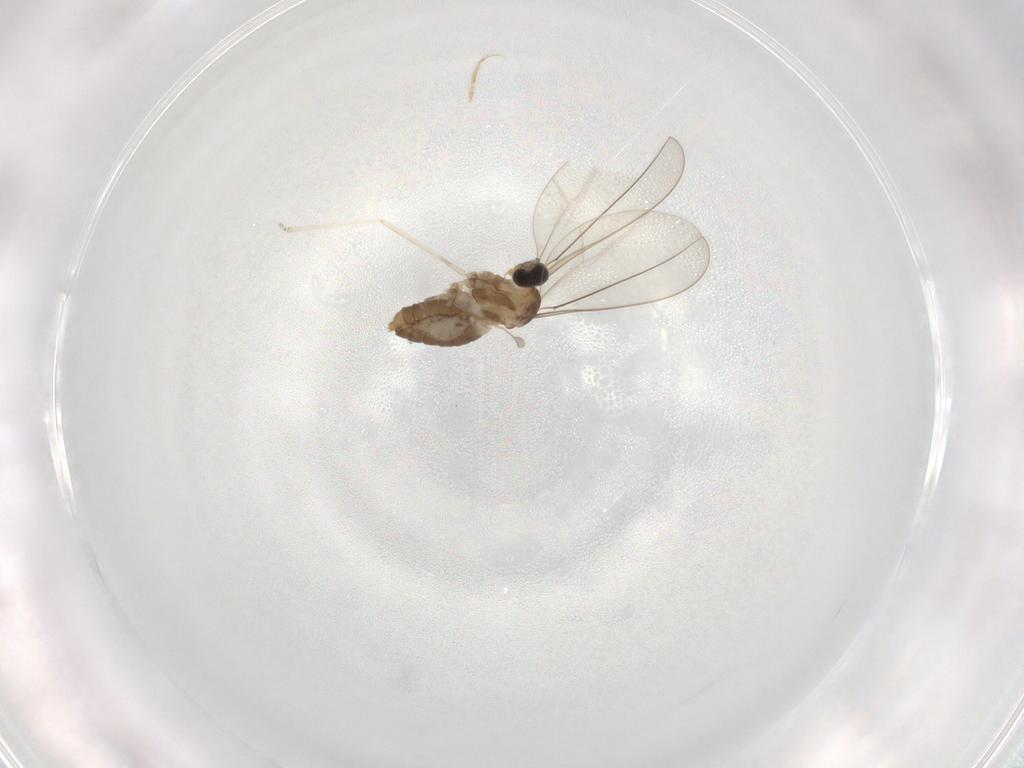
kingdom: Animalia
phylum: Arthropoda
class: Insecta
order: Diptera
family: Cecidomyiidae
